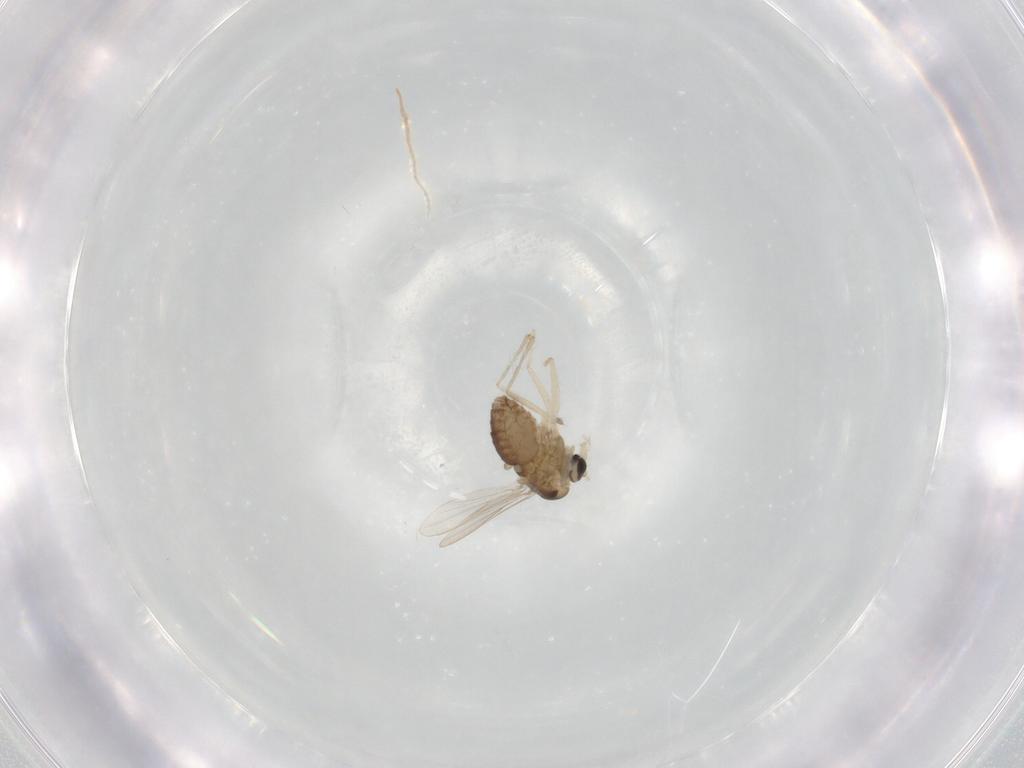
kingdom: Animalia
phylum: Arthropoda
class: Insecta
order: Diptera
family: Chironomidae
